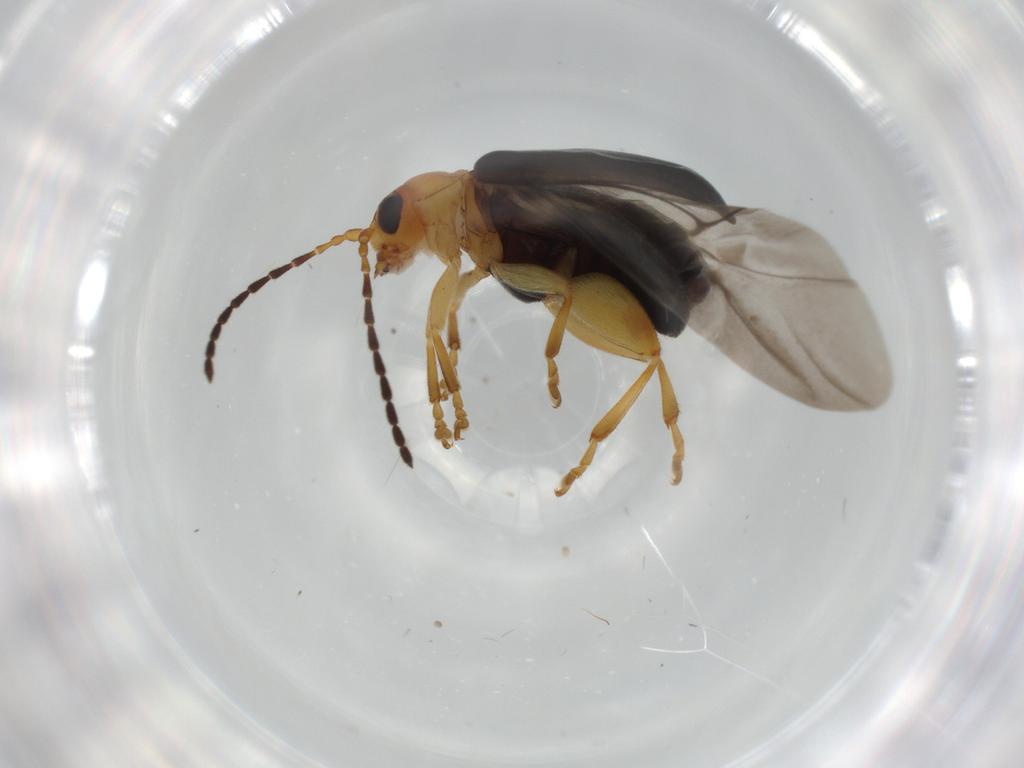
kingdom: Animalia
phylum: Arthropoda
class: Insecta
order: Coleoptera
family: Chrysomelidae
